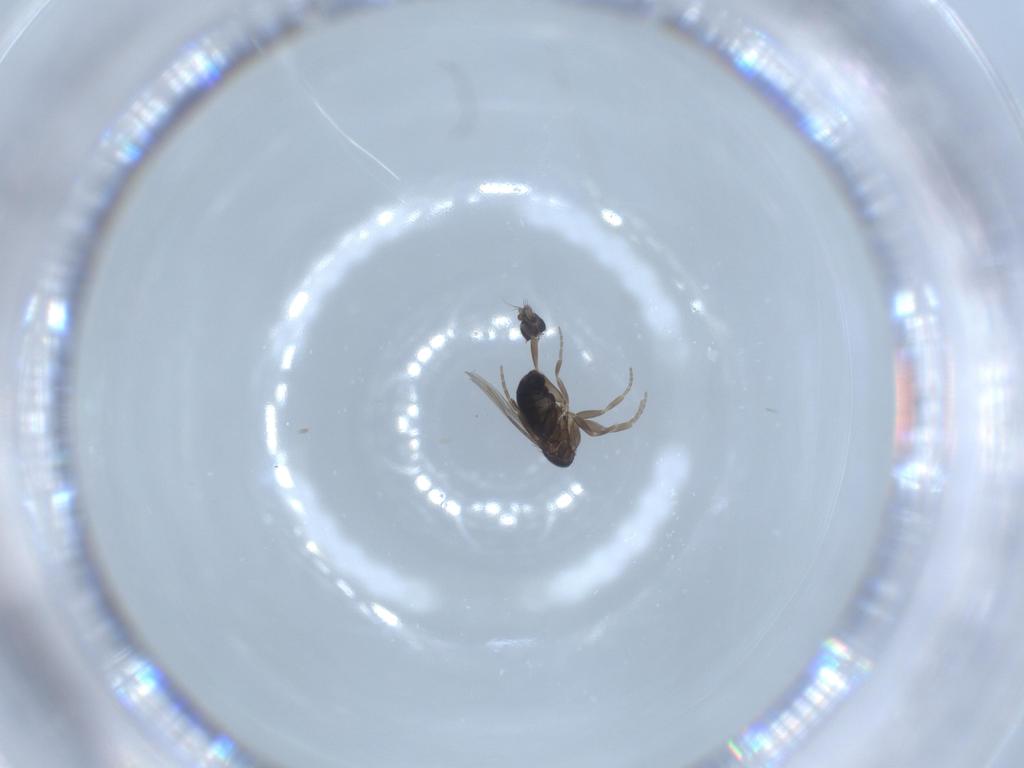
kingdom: Animalia
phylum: Arthropoda
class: Insecta
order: Diptera
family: Phoridae
